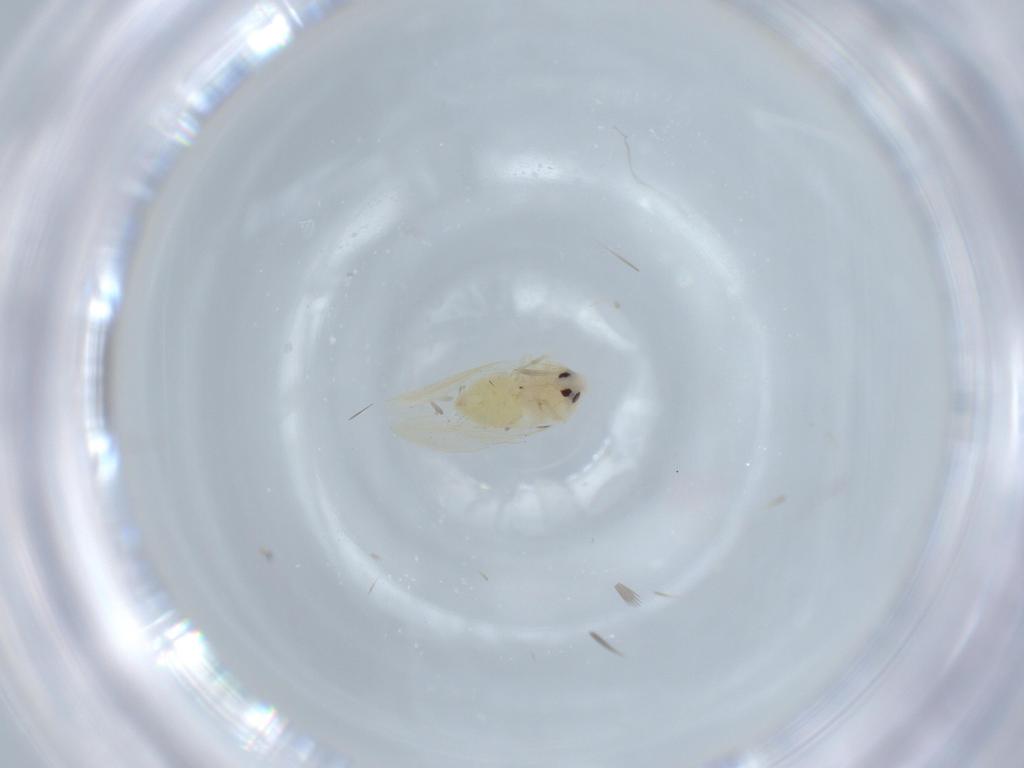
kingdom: Animalia
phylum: Arthropoda
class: Insecta
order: Hemiptera
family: Aleyrodidae
